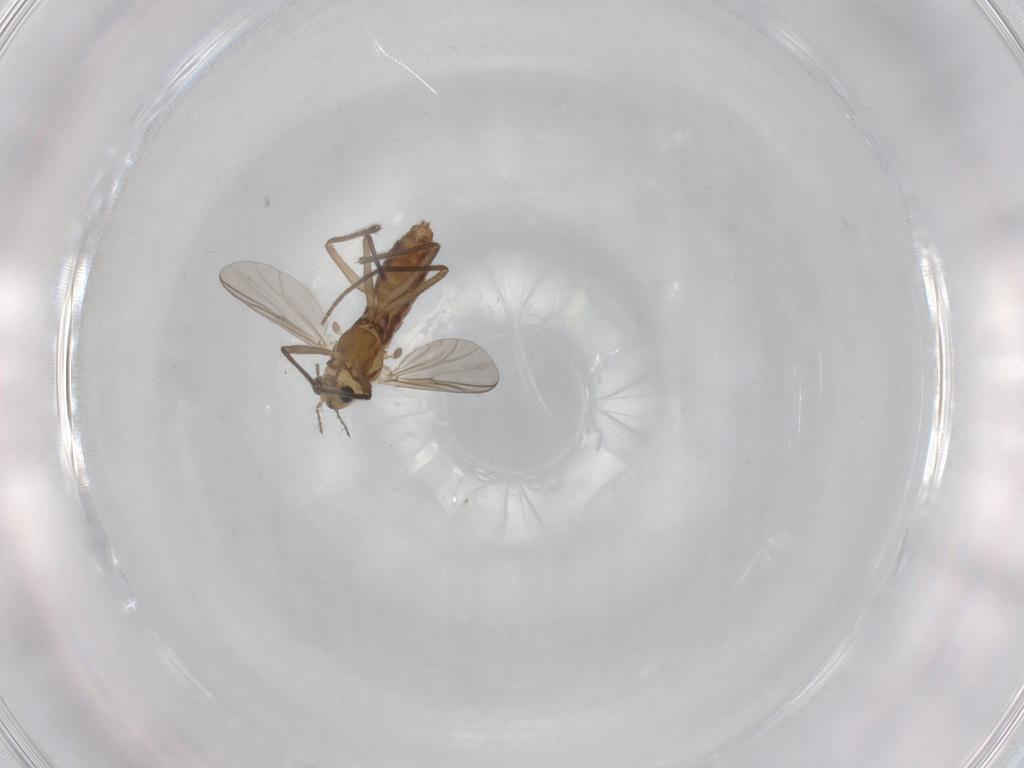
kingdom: Animalia
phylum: Arthropoda
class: Insecta
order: Diptera
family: Chironomidae
